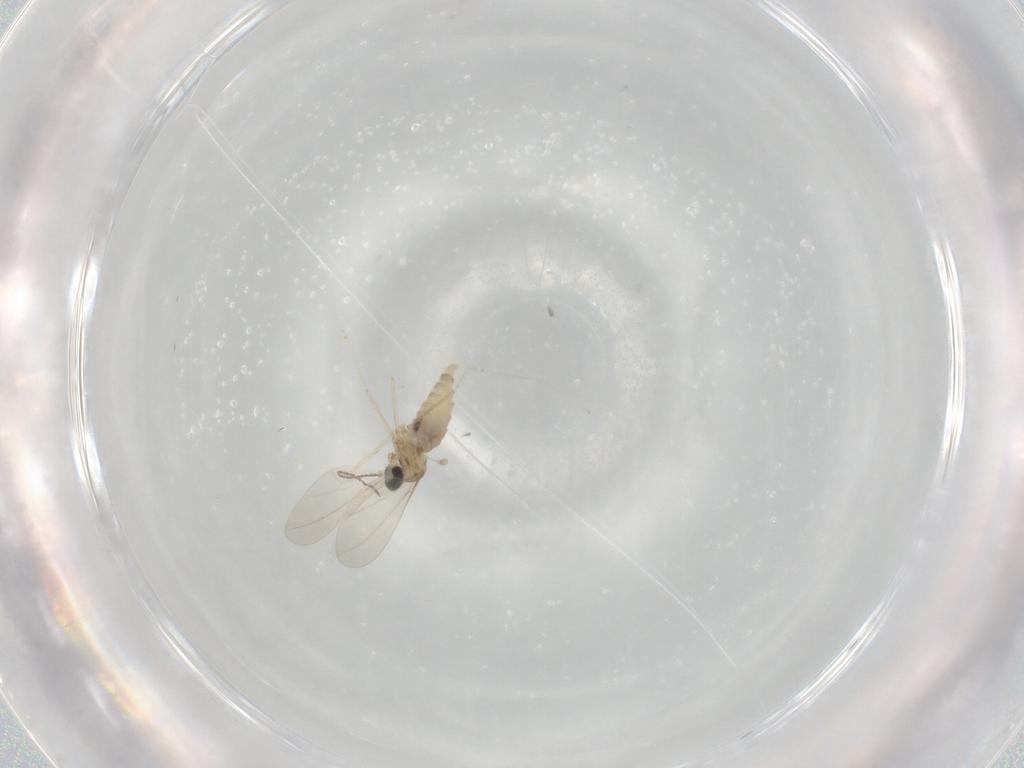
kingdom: Animalia
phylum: Arthropoda
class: Insecta
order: Diptera
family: Cecidomyiidae
